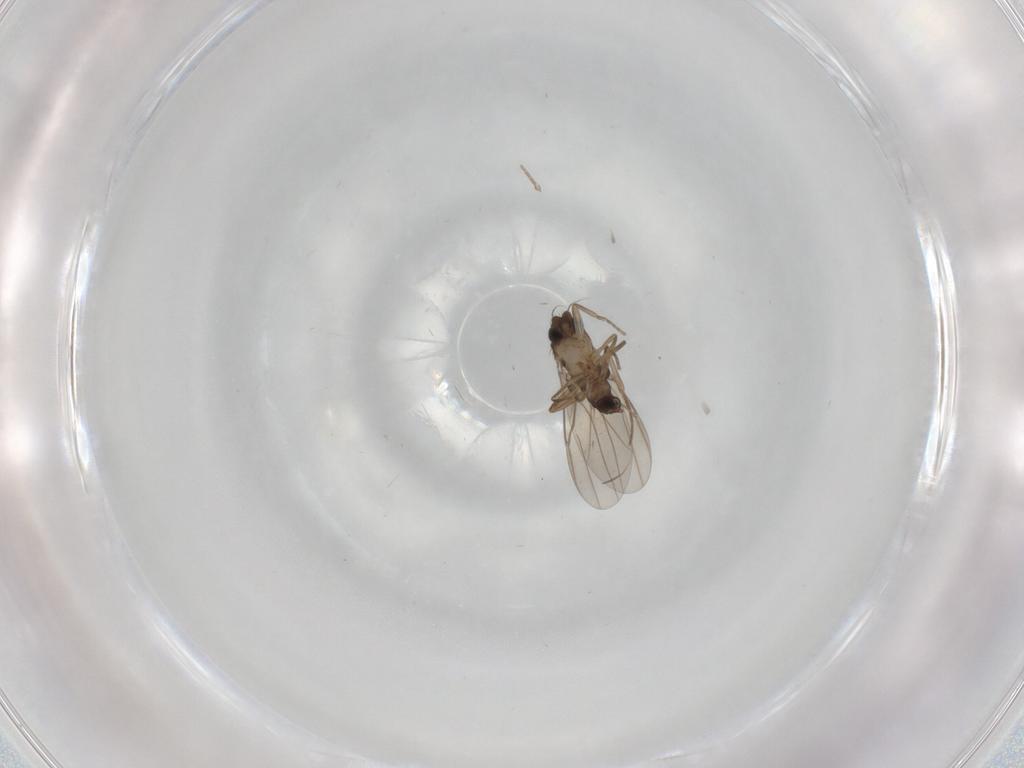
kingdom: Animalia
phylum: Arthropoda
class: Insecta
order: Diptera
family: Phoridae
